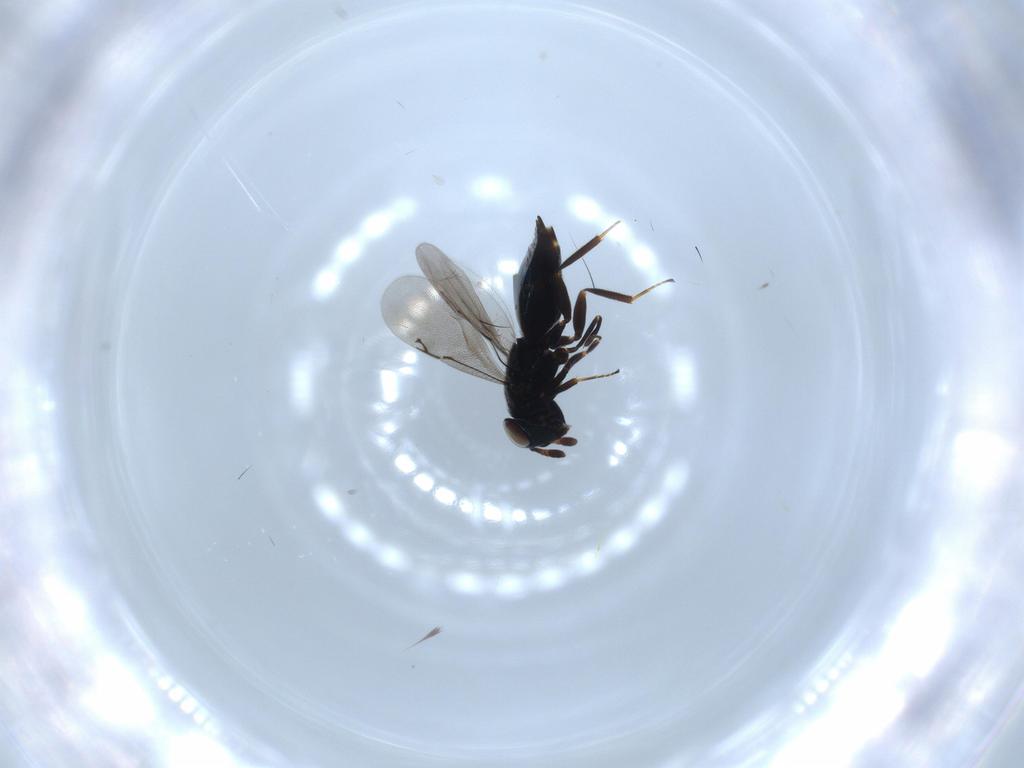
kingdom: Animalia
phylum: Arthropoda
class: Insecta
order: Hymenoptera
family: Eunotidae
